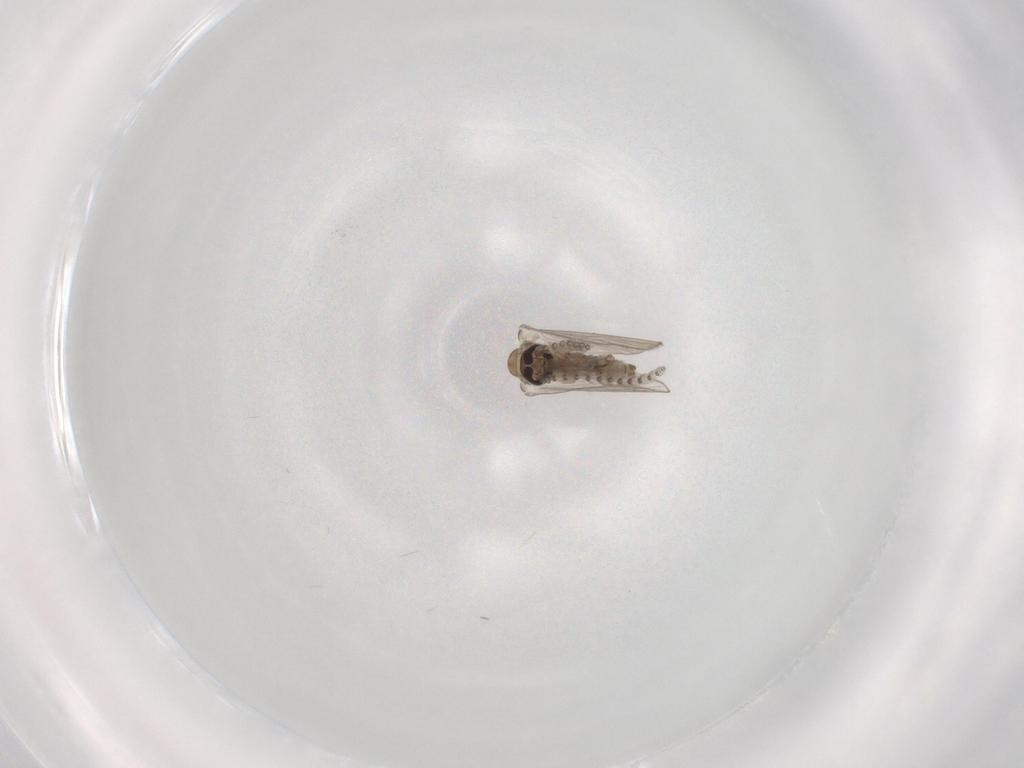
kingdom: Animalia
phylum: Arthropoda
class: Insecta
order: Diptera
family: Psychodidae
